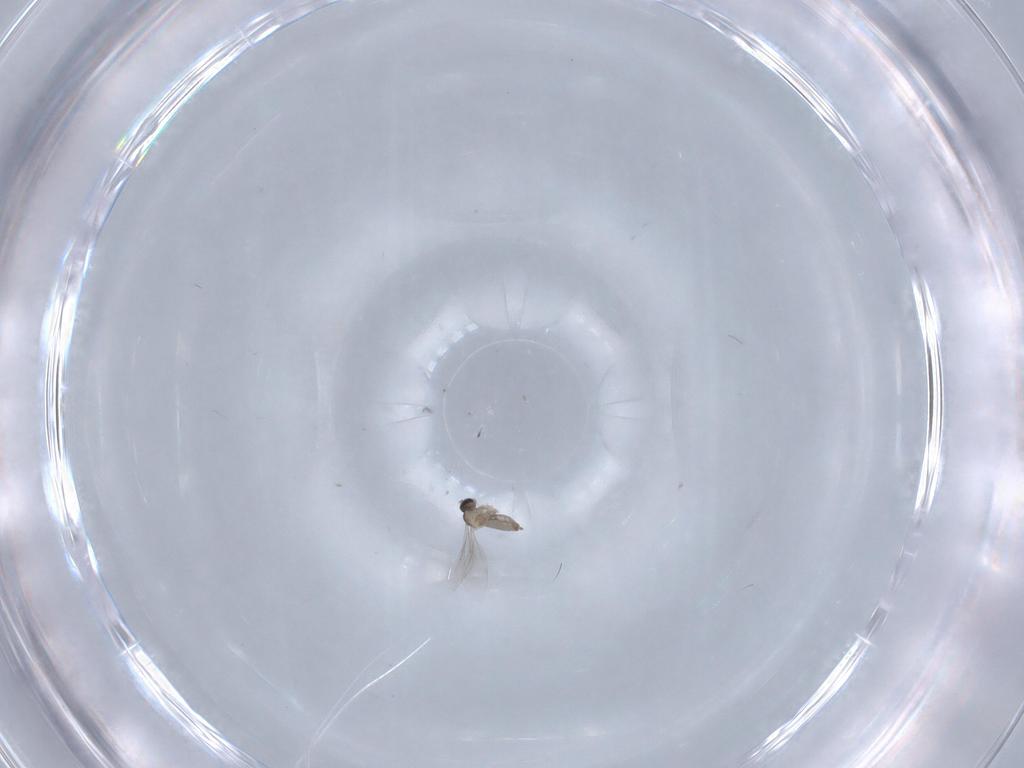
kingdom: Animalia
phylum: Arthropoda
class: Insecta
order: Diptera
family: Cecidomyiidae
